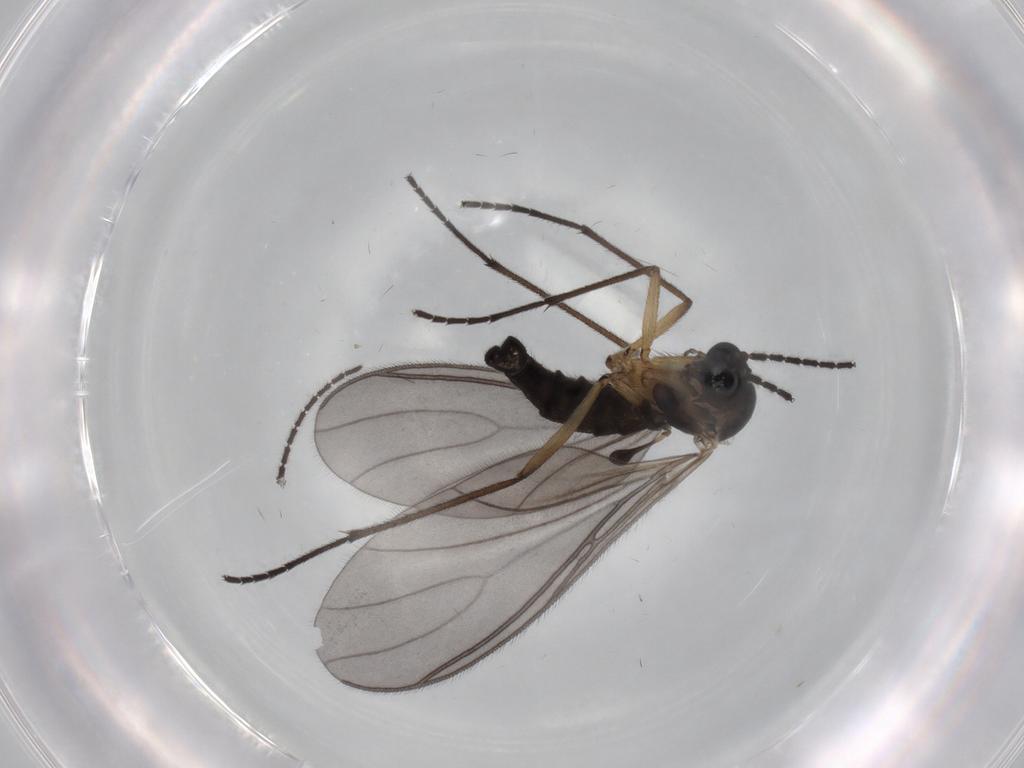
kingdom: Animalia
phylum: Arthropoda
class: Insecta
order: Diptera
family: Sciaridae
